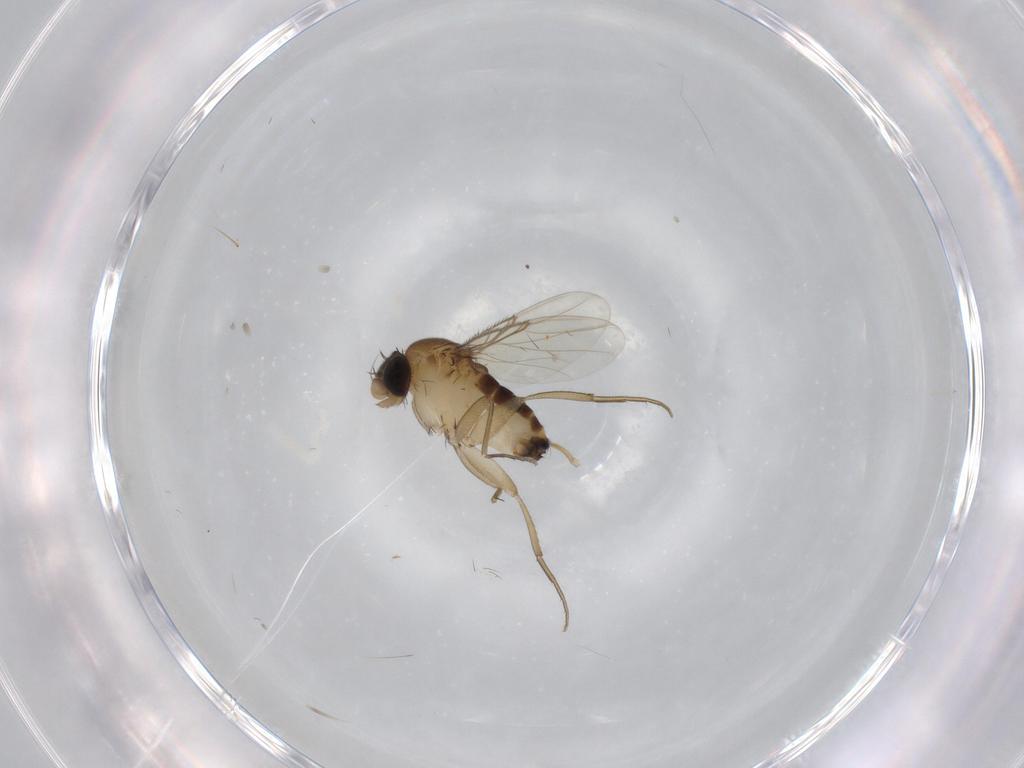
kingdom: Animalia
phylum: Arthropoda
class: Insecta
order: Diptera
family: Phoridae
